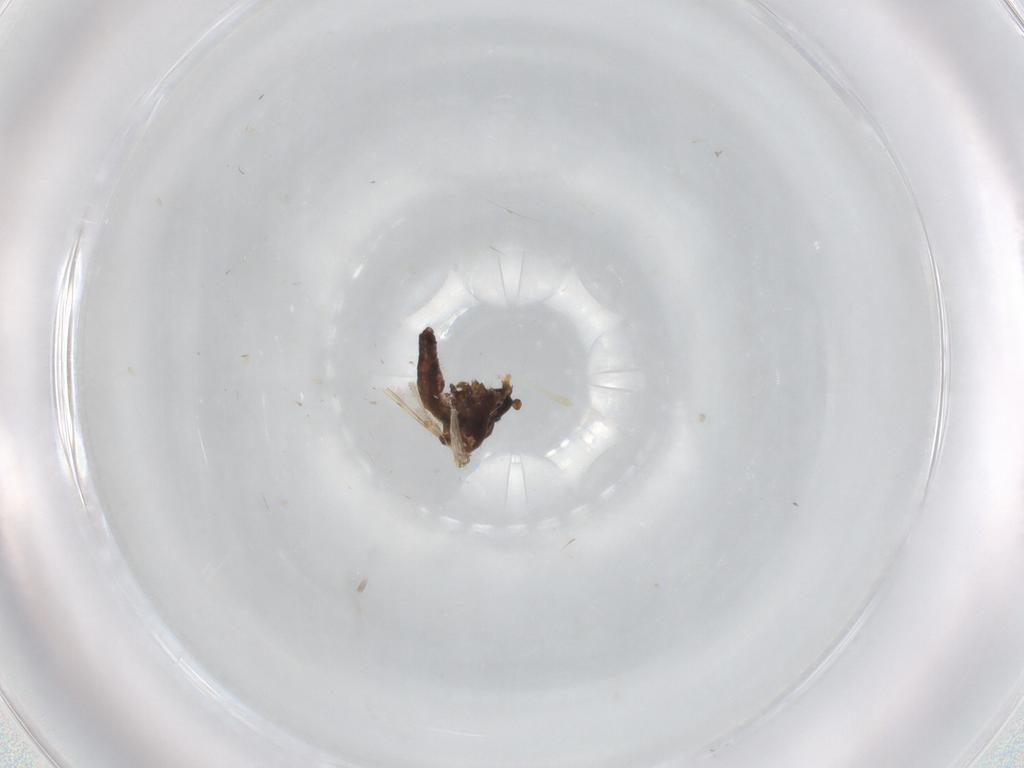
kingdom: Animalia
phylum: Arthropoda
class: Insecta
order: Diptera
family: Corethrellidae
